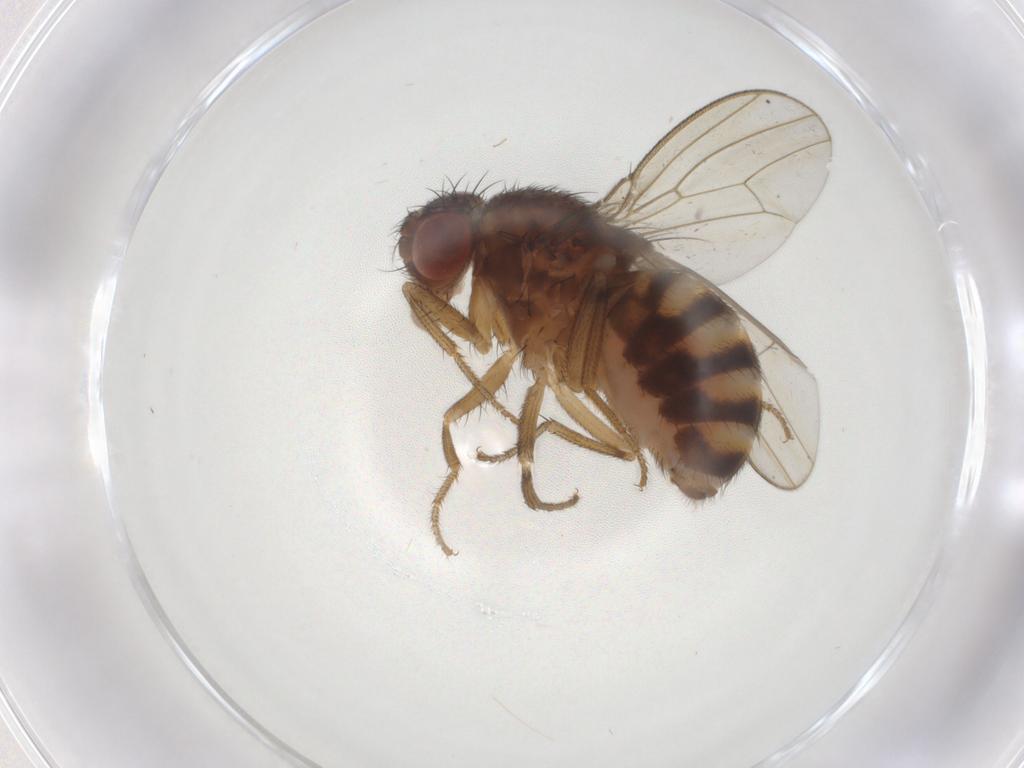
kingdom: Animalia
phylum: Arthropoda
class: Insecta
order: Diptera
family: Drosophilidae
